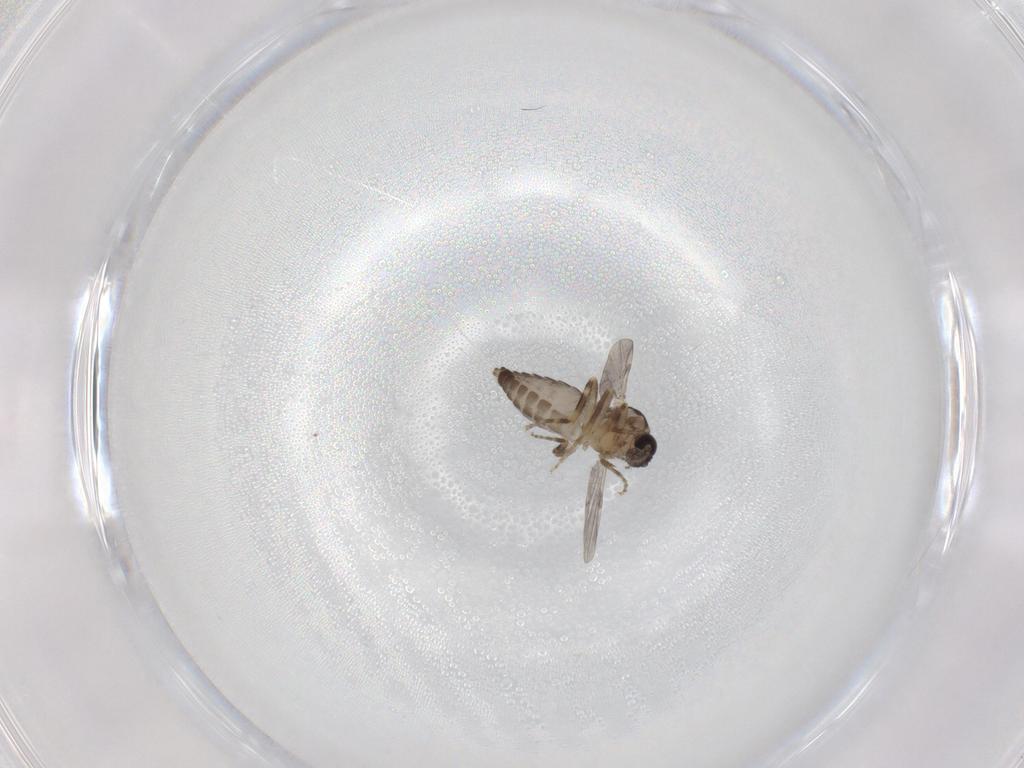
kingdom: Animalia
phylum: Arthropoda
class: Insecta
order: Diptera
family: Ceratopogonidae
